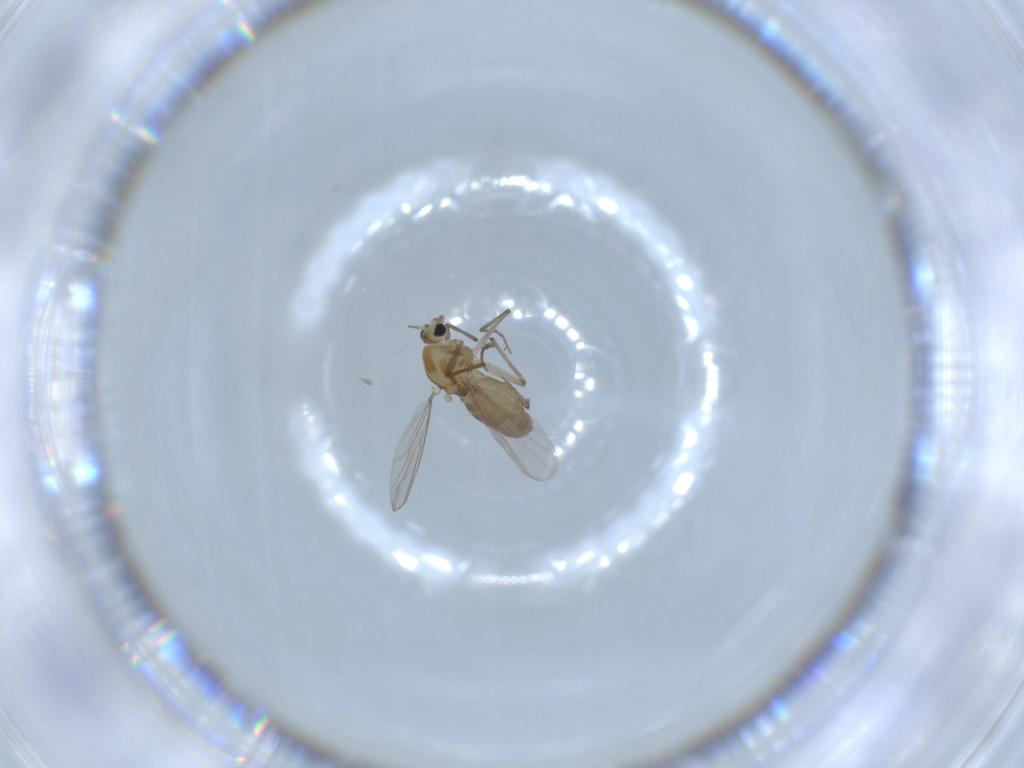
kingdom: Animalia
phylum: Arthropoda
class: Insecta
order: Diptera
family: Chironomidae
